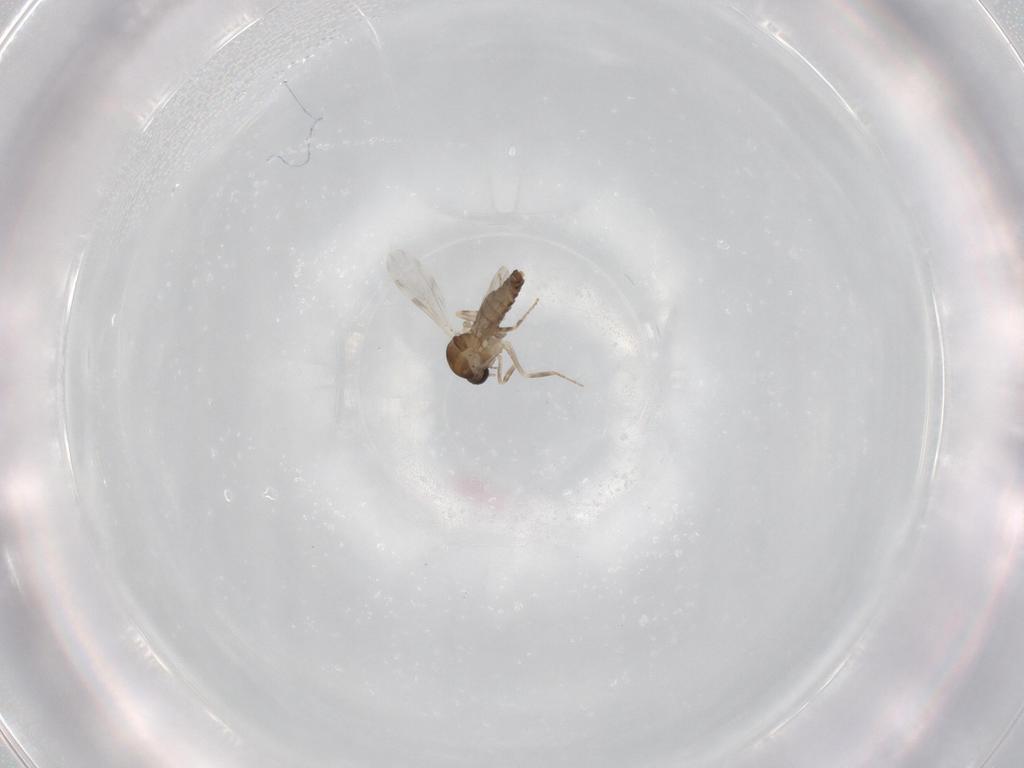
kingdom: Animalia
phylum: Arthropoda
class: Insecta
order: Diptera
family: Ceratopogonidae
